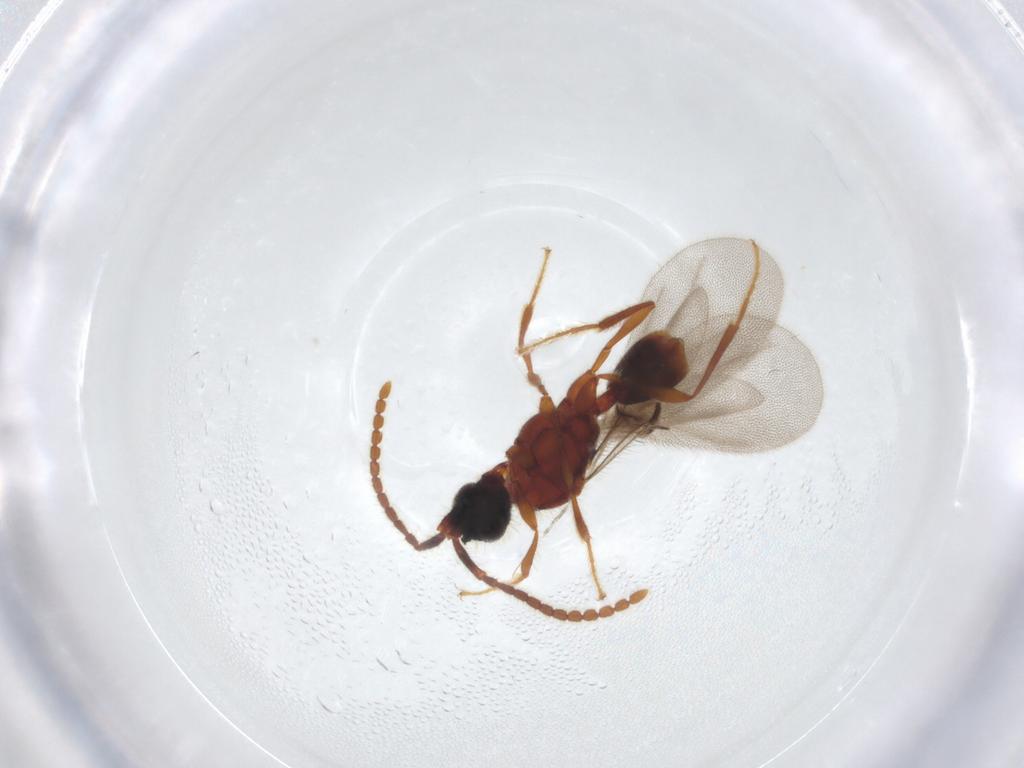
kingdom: Animalia
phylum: Arthropoda
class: Insecta
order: Hymenoptera
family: Diapriidae
